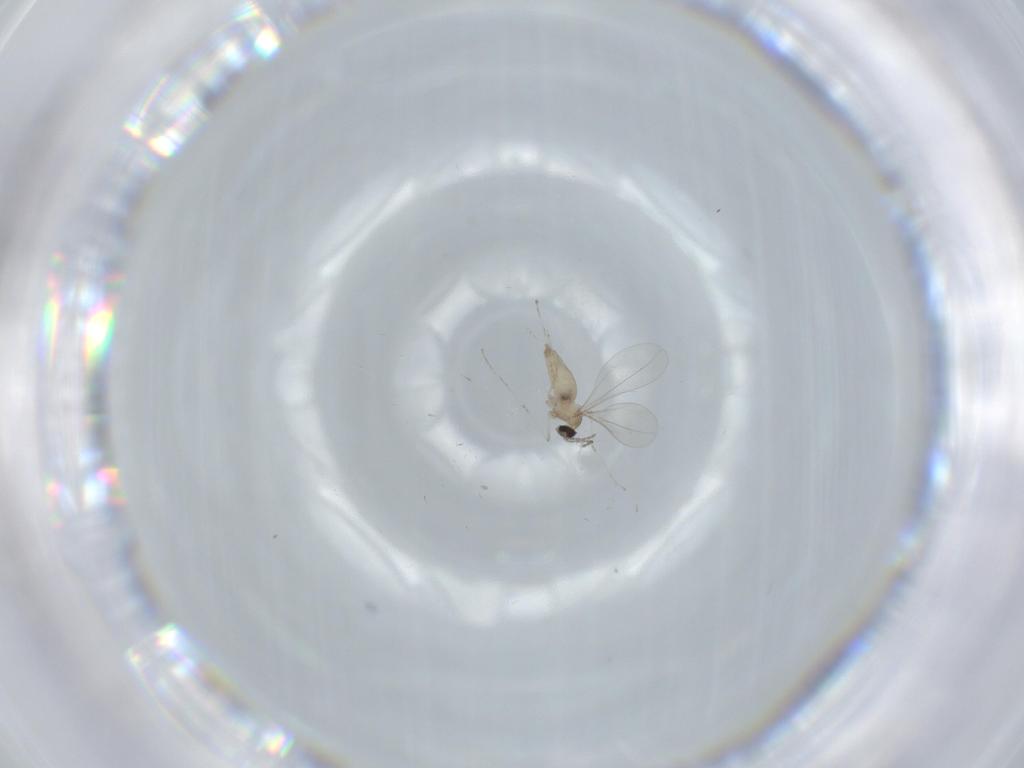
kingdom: Animalia
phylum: Arthropoda
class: Insecta
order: Diptera
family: Cecidomyiidae
